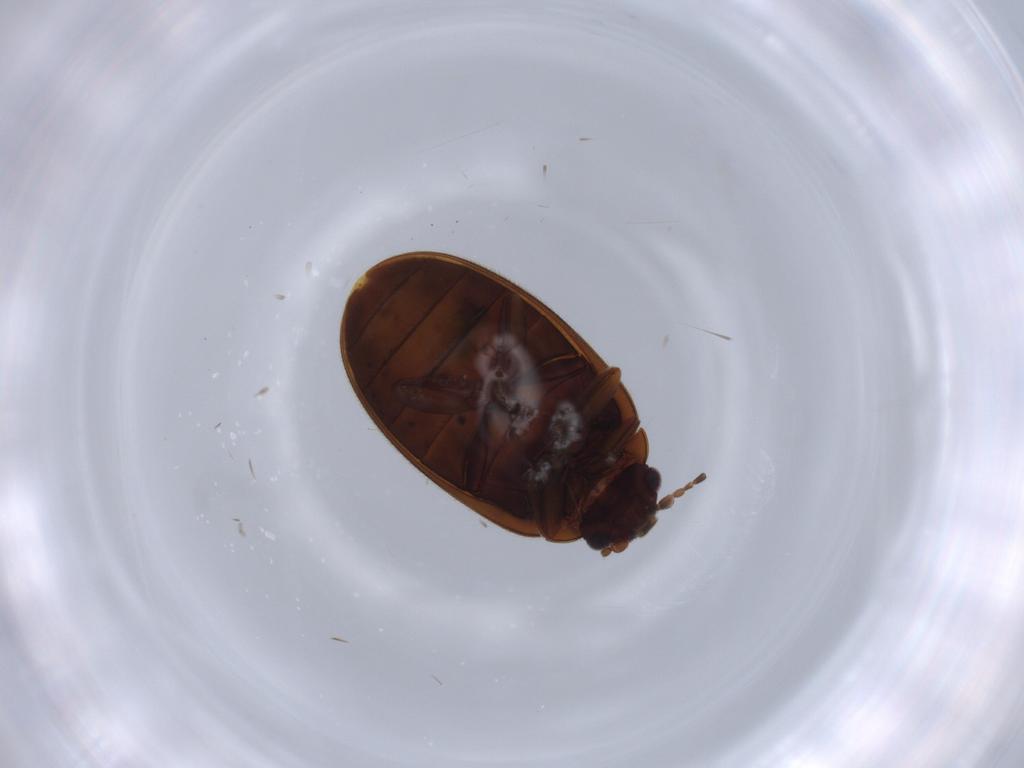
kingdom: Animalia
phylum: Arthropoda
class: Insecta
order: Coleoptera
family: Scirtidae
